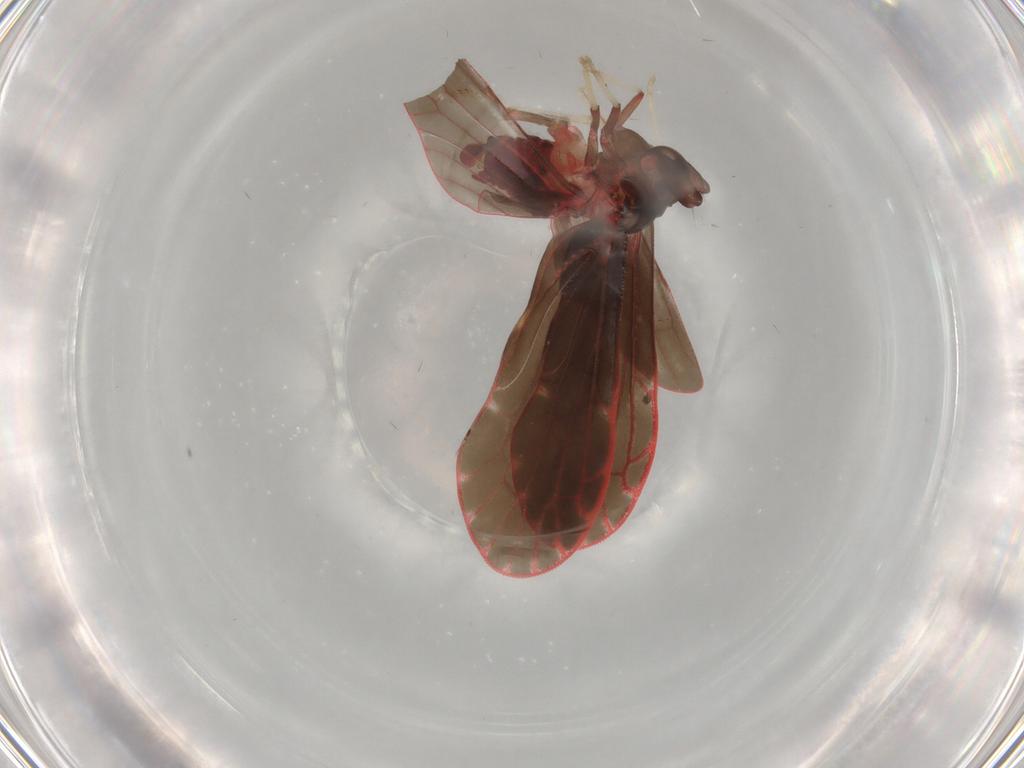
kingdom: Animalia
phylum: Arthropoda
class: Insecta
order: Hemiptera
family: Derbidae
